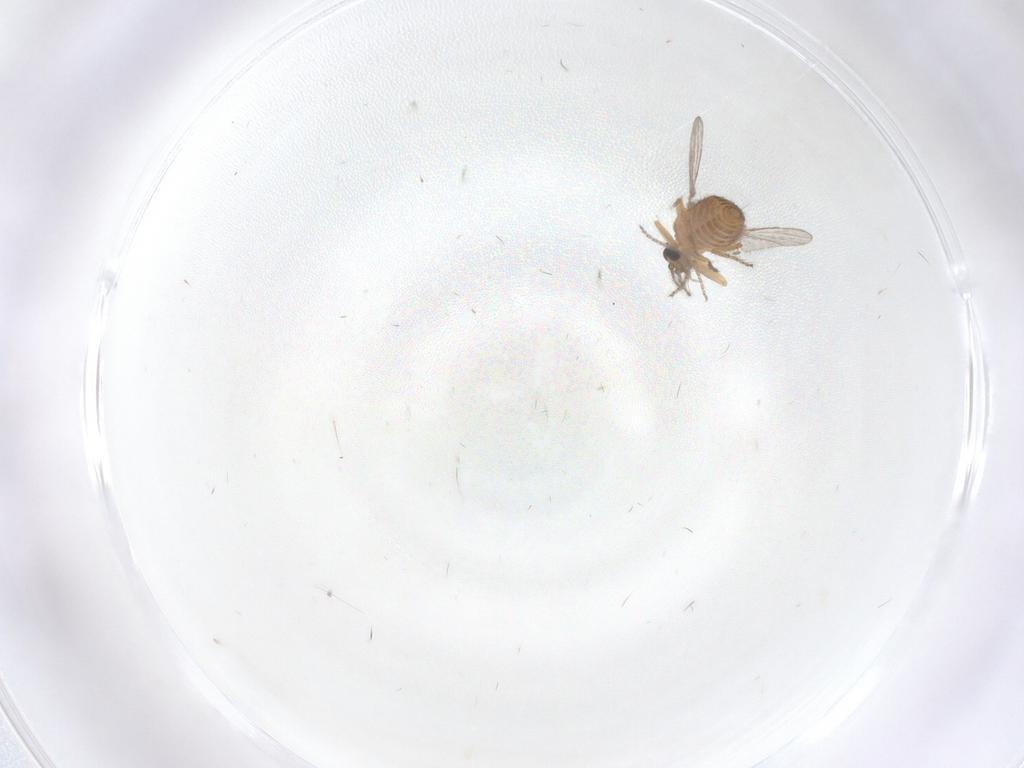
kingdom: Animalia
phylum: Arthropoda
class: Insecta
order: Diptera
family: Ceratopogonidae
